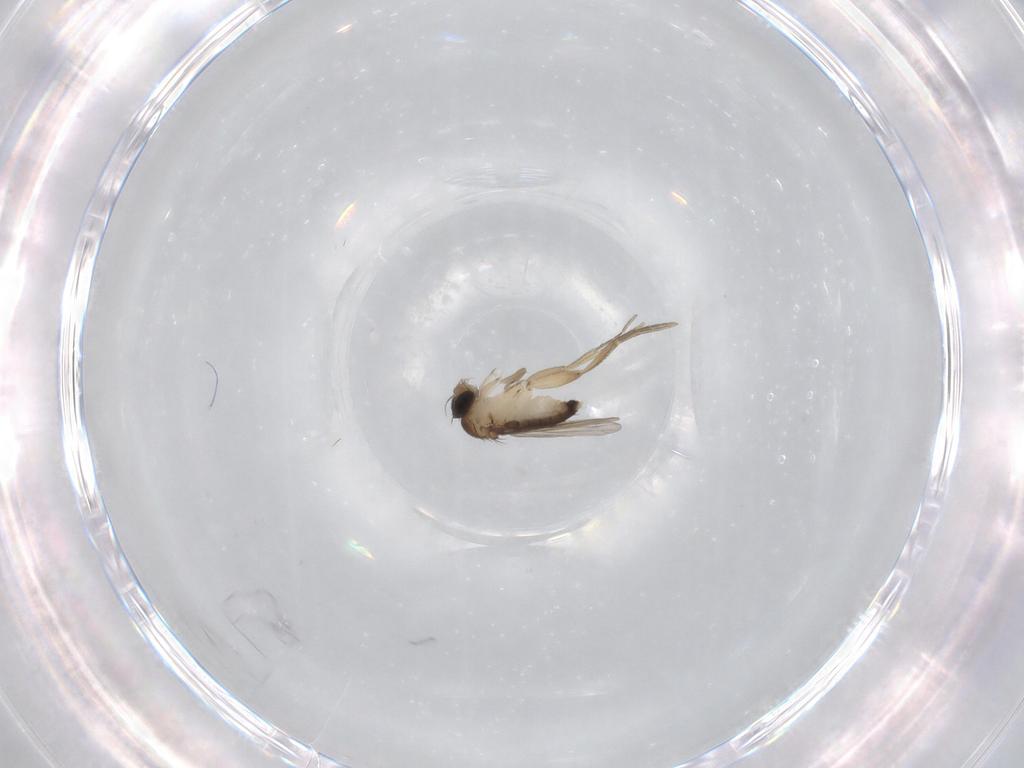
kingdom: Animalia
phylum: Arthropoda
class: Insecta
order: Diptera
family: Phoridae
